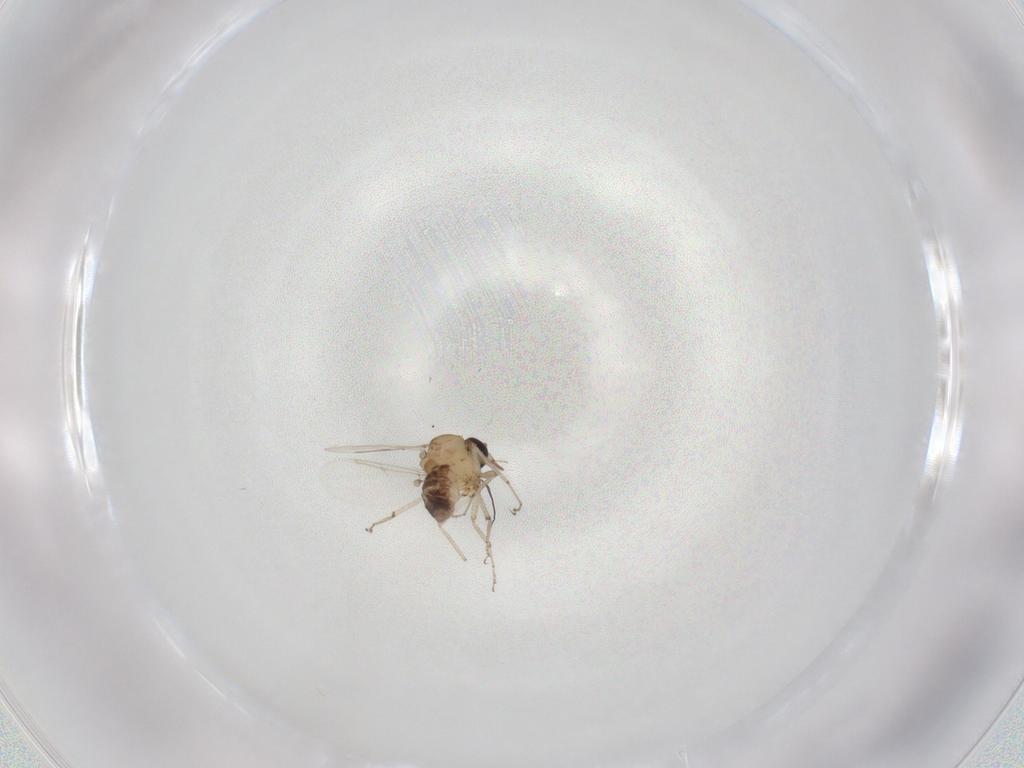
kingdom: Animalia
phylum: Arthropoda
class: Insecta
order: Diptera
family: Ceratopogonidae
